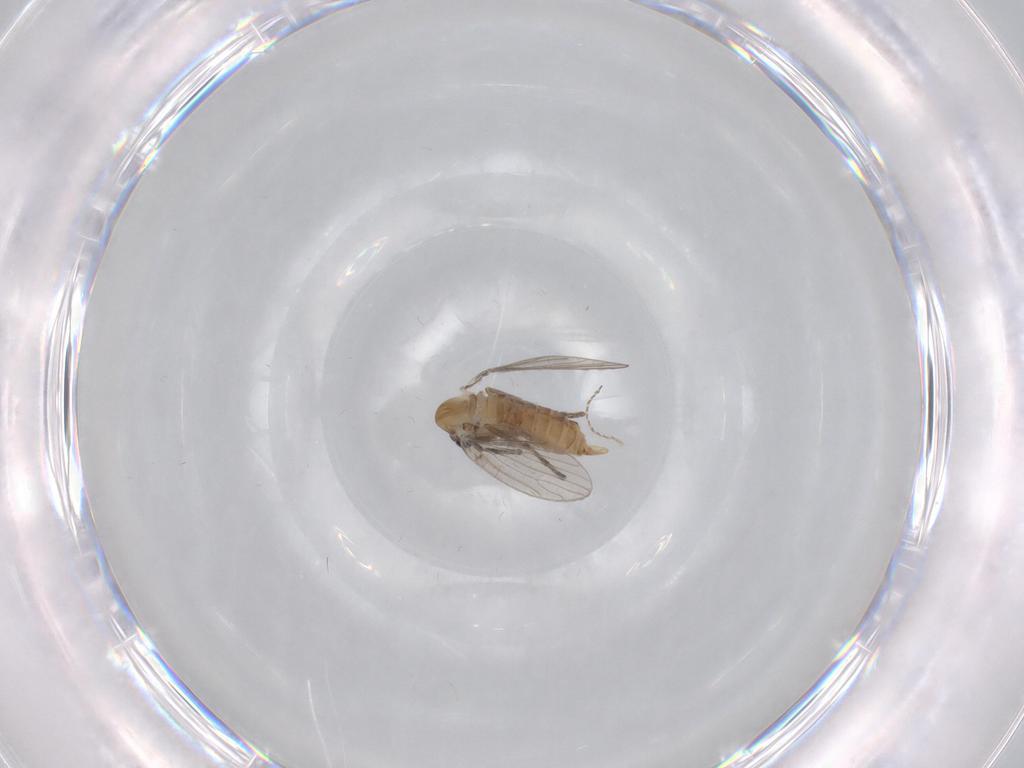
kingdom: Animalia
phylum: Arthropoda
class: Insecta
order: Diptera
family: Psychodidae
